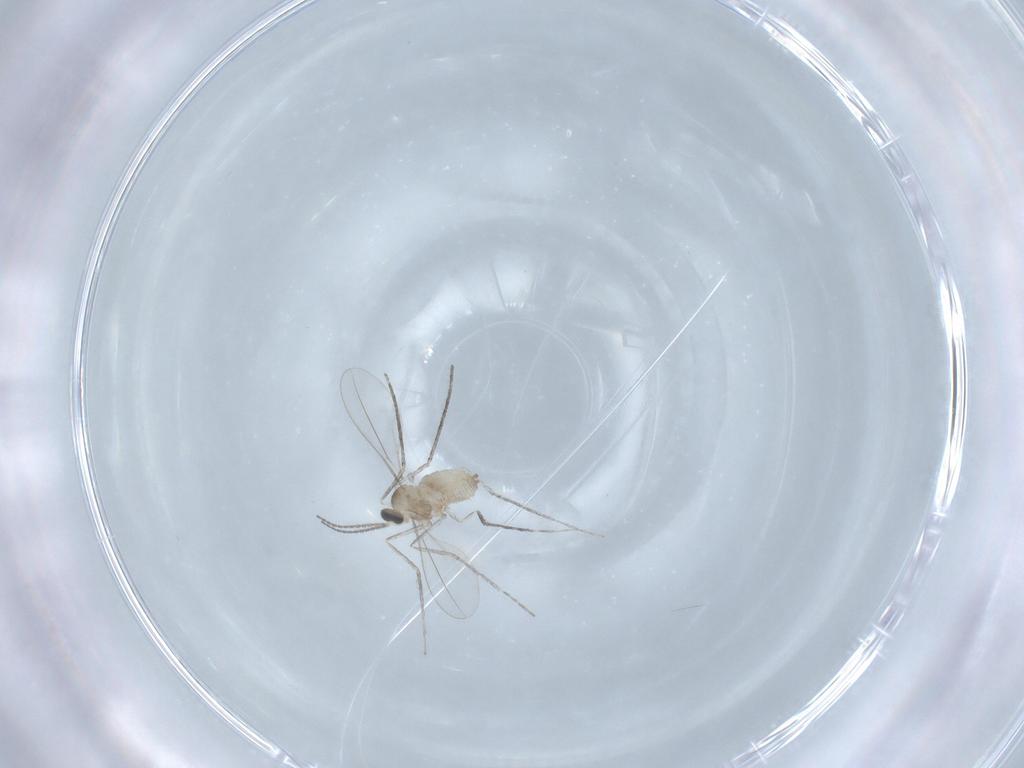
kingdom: Animalia
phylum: Arthropoda
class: Insecta
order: Diptera
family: Cecidomyiidae
